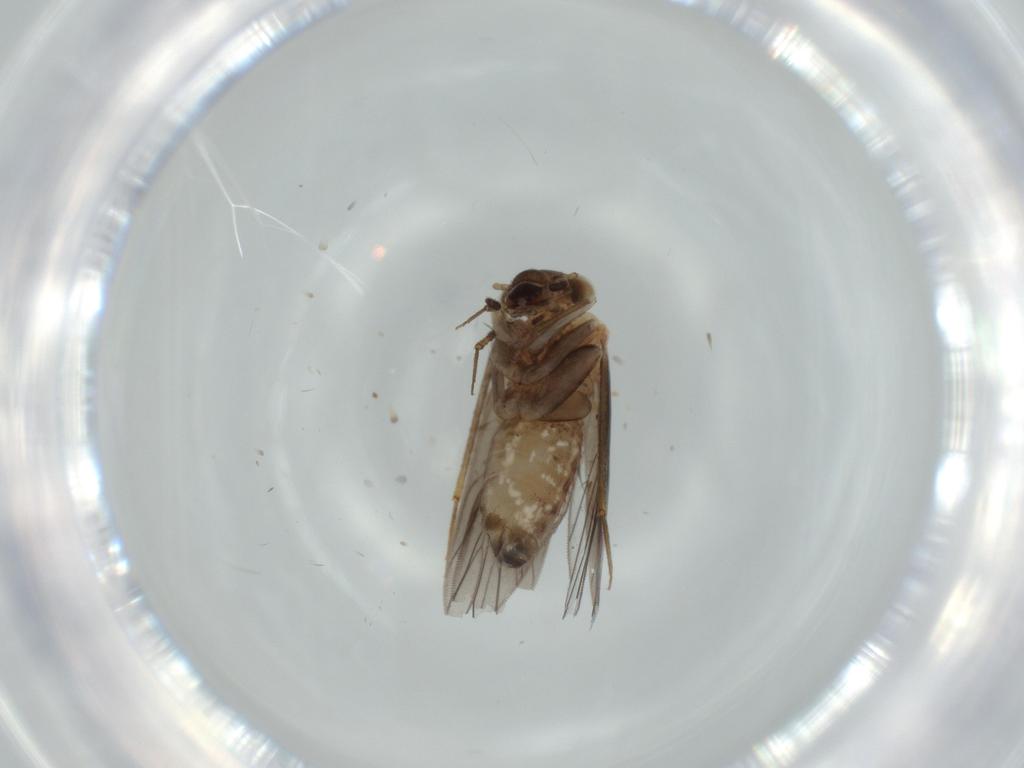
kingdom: Animalia
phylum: Arthropoda
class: Insecta
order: Psocodea
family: Lepidopsocidae
